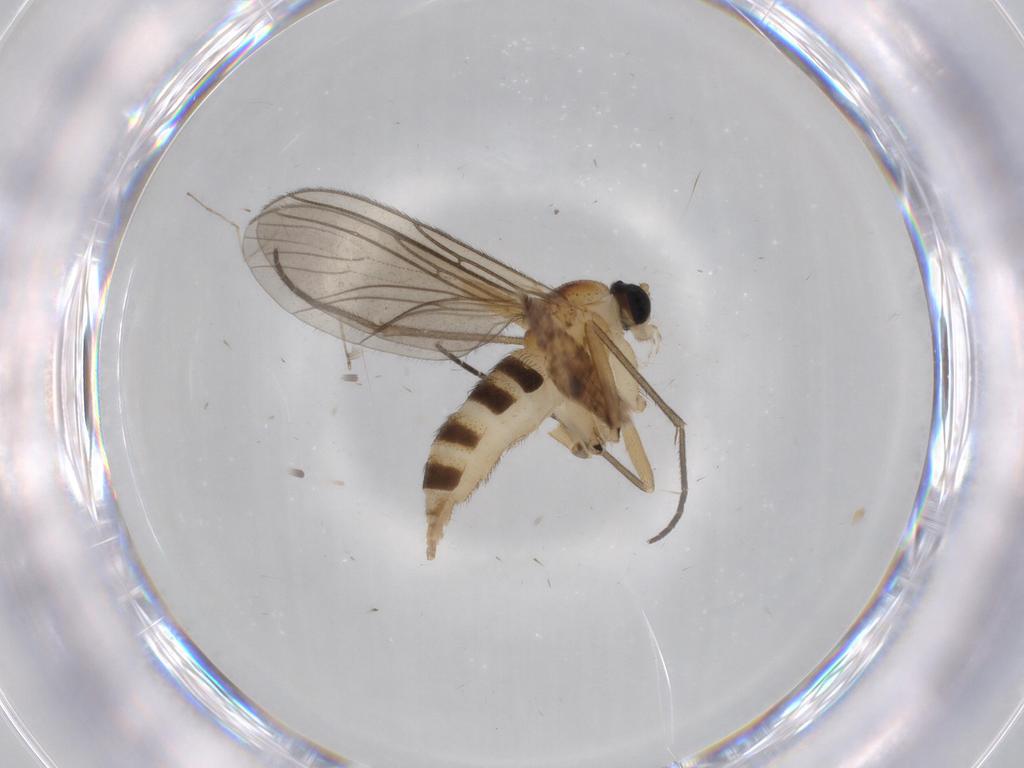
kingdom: Animalia
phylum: Arthropoda
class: Insecta
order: Diptera
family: Sciaridae
